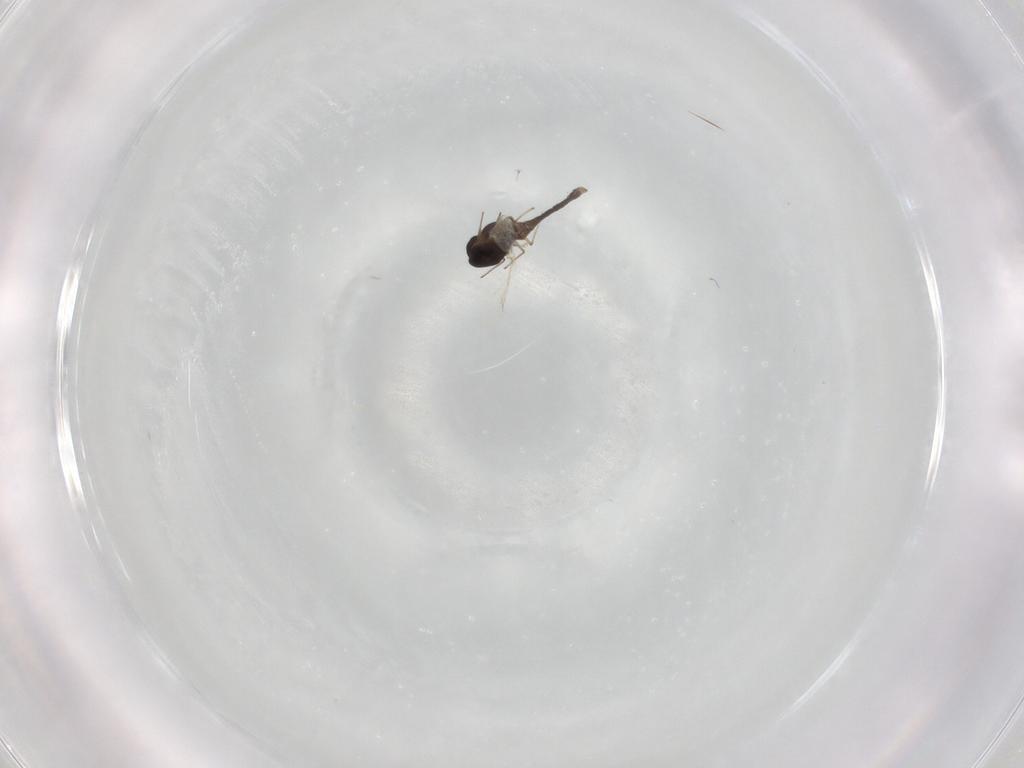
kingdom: Animalia
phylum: Arthropoda
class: Insecta
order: Diptera
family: Chironomidae
